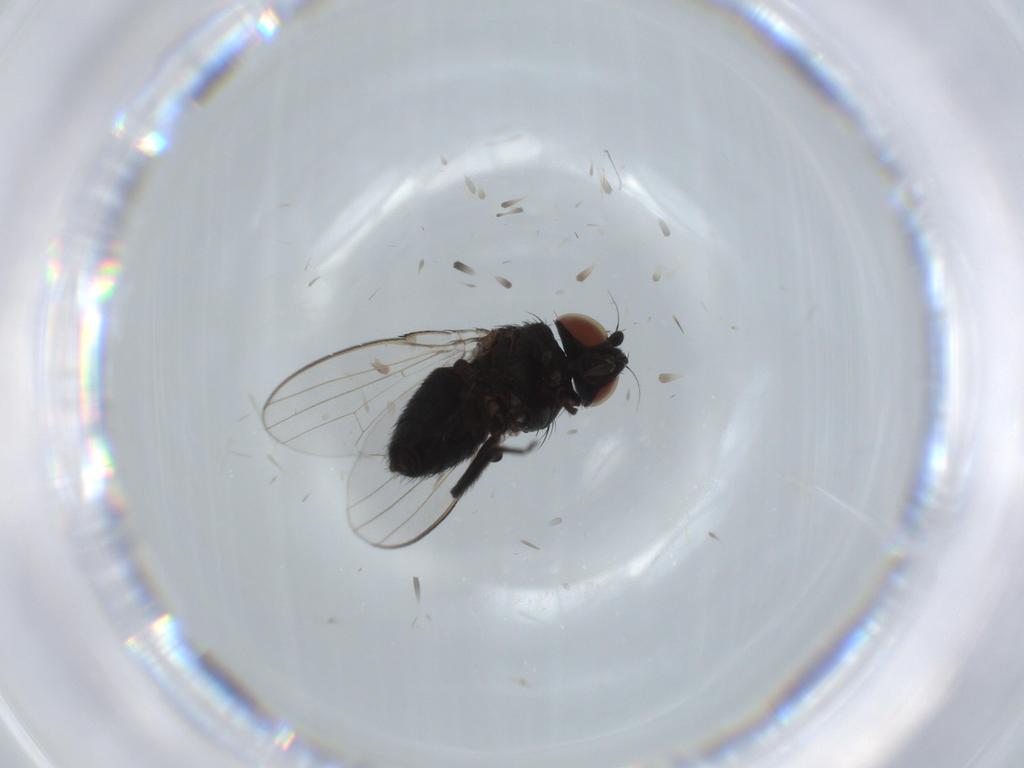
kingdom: Animalia
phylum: Arthropoda
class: Insecta
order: Diptera
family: Milichiidae
